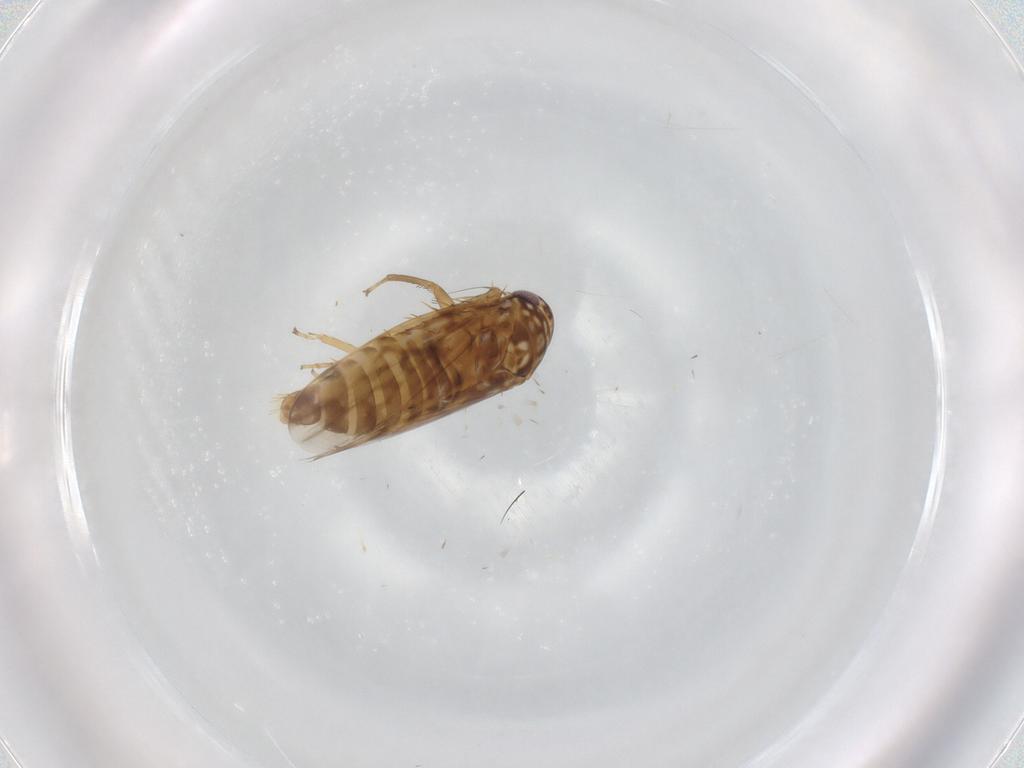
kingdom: Animalia
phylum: Arthropoda
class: Insecta
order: Hemiptera
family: Cicadellidae
